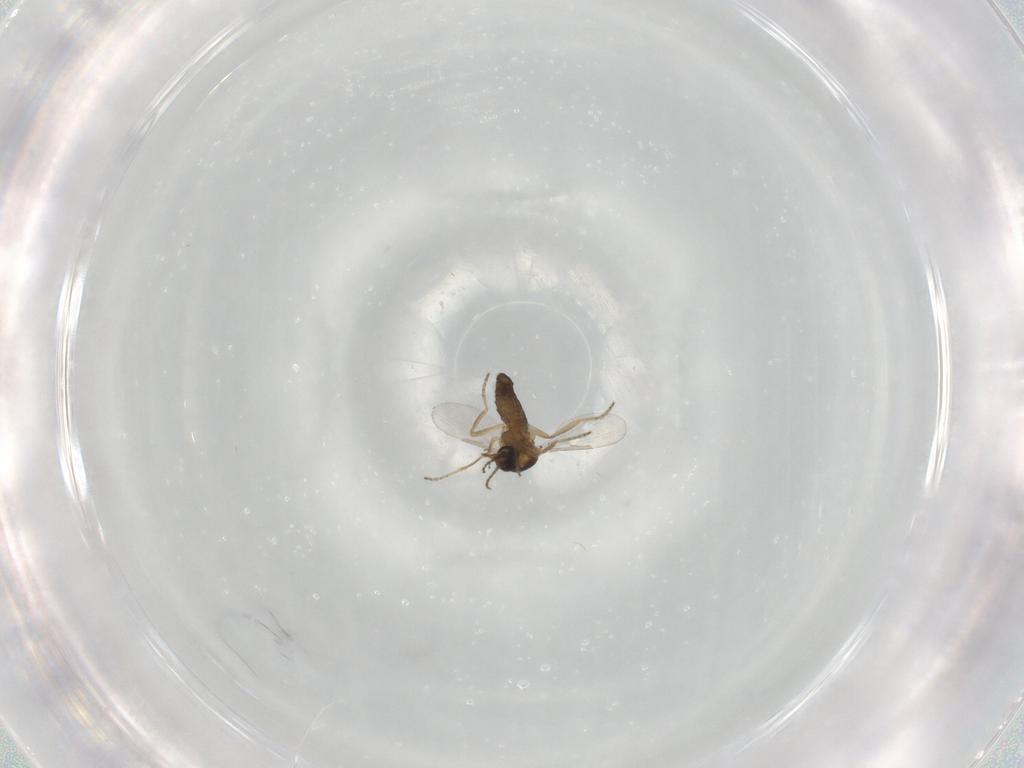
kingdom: Animalia
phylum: Arthropoda
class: Insecta
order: Diptera
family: Ceratopogonidae
